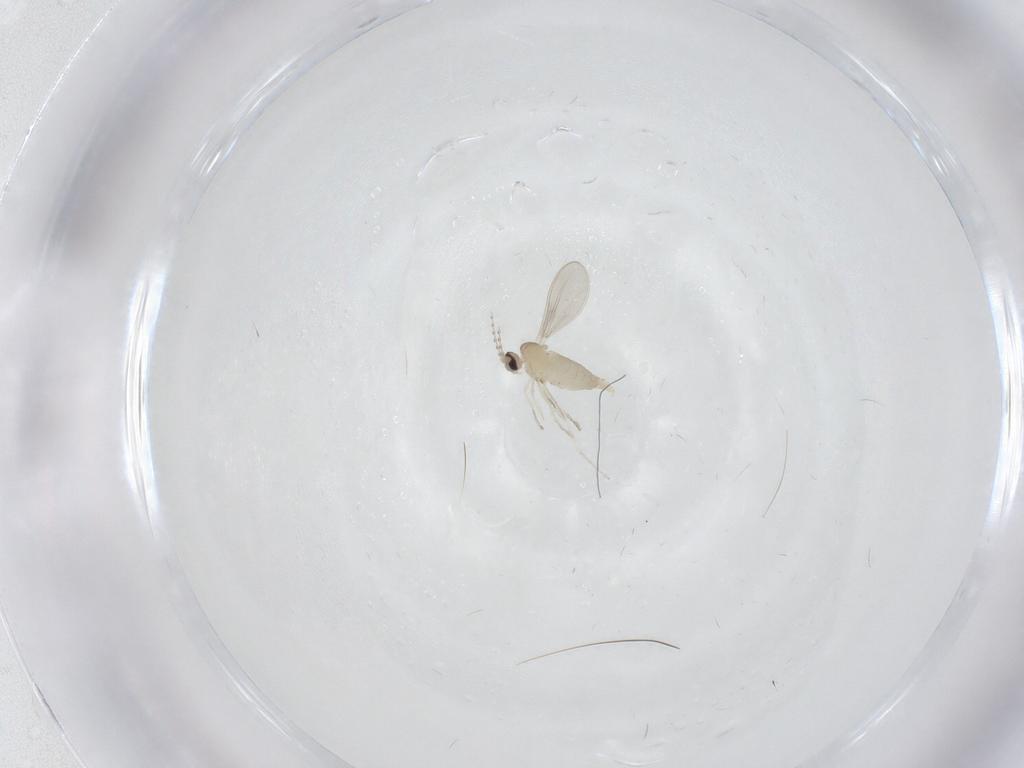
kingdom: Animalia
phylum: Arthropoda
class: Insecta
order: Diptera
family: Cecidomyiidae
